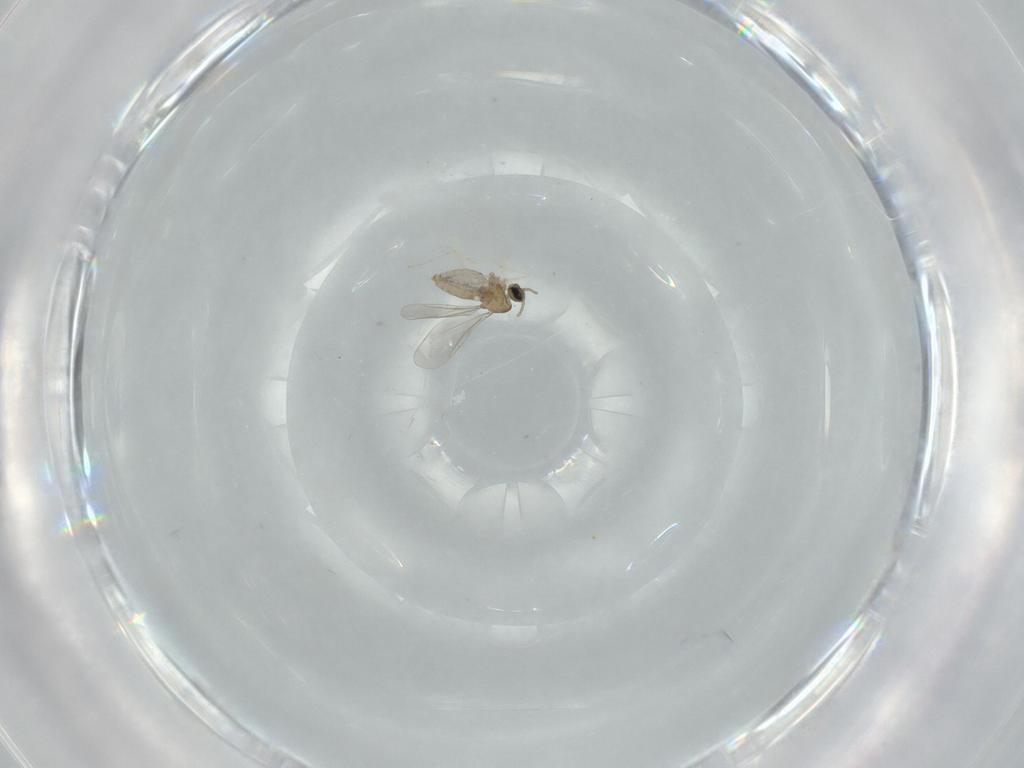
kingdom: Animalia
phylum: Arthropoda
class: Insecta
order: Diptera
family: Cecidomyiidae
